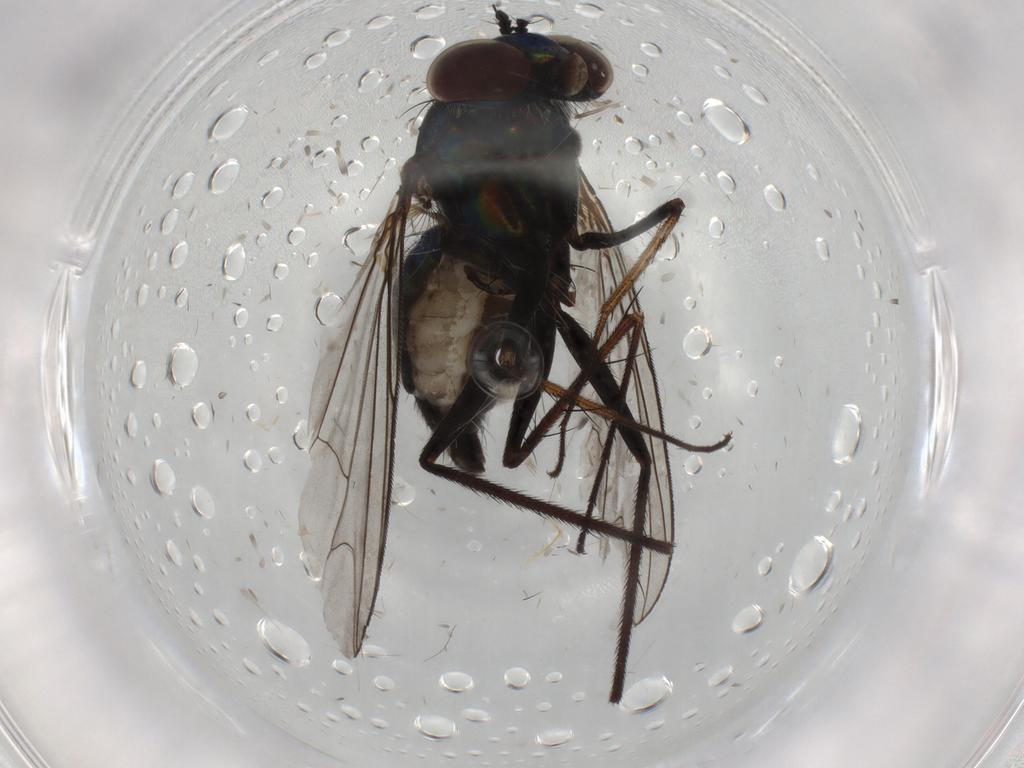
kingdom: Animalia
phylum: Arthropoda
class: Insecta
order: Diptera
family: Dolichopodidae
